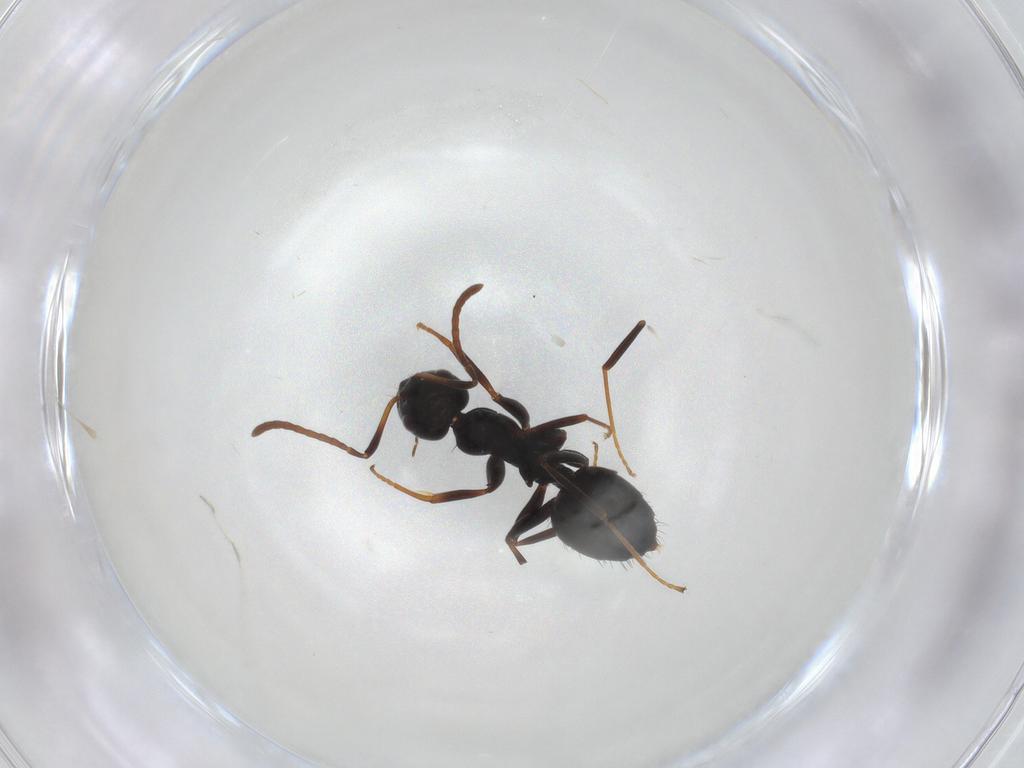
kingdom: Animalia
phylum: Arthropoda
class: Insecta
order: Hymenoptera
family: Formicidae
